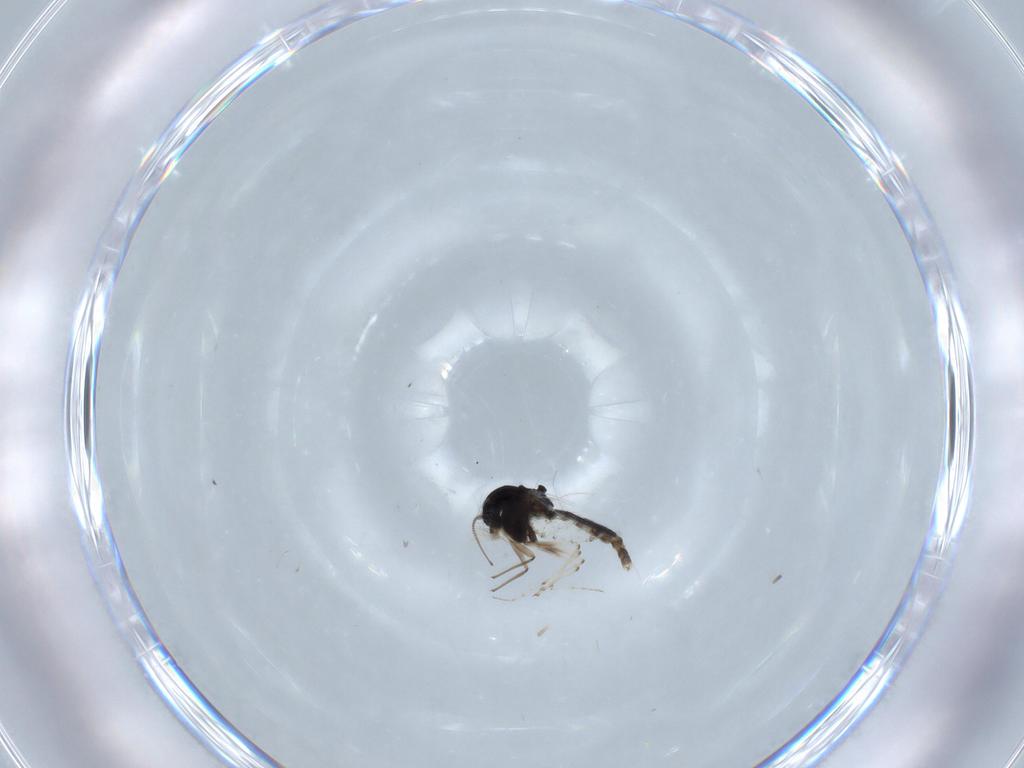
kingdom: Animalia
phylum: Arthropoda
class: Insecta
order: Diptera
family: Chironomidae
